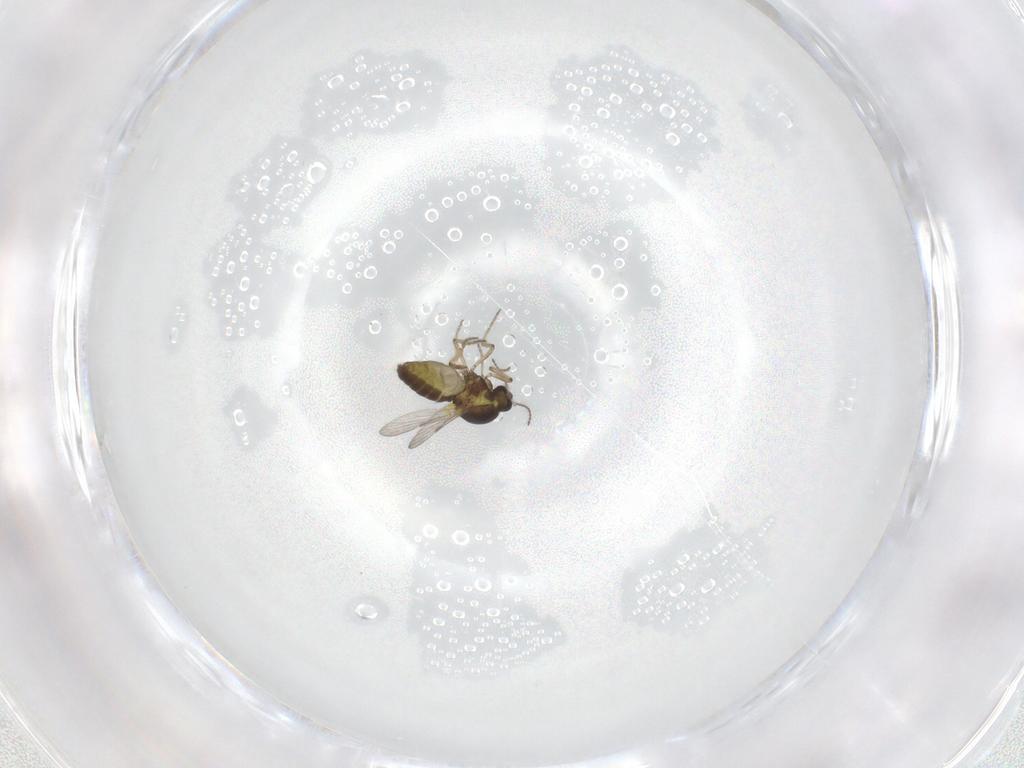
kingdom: Animalia
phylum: Arthropoda
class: Insecta
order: Diptera
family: Ceratopogonidae
